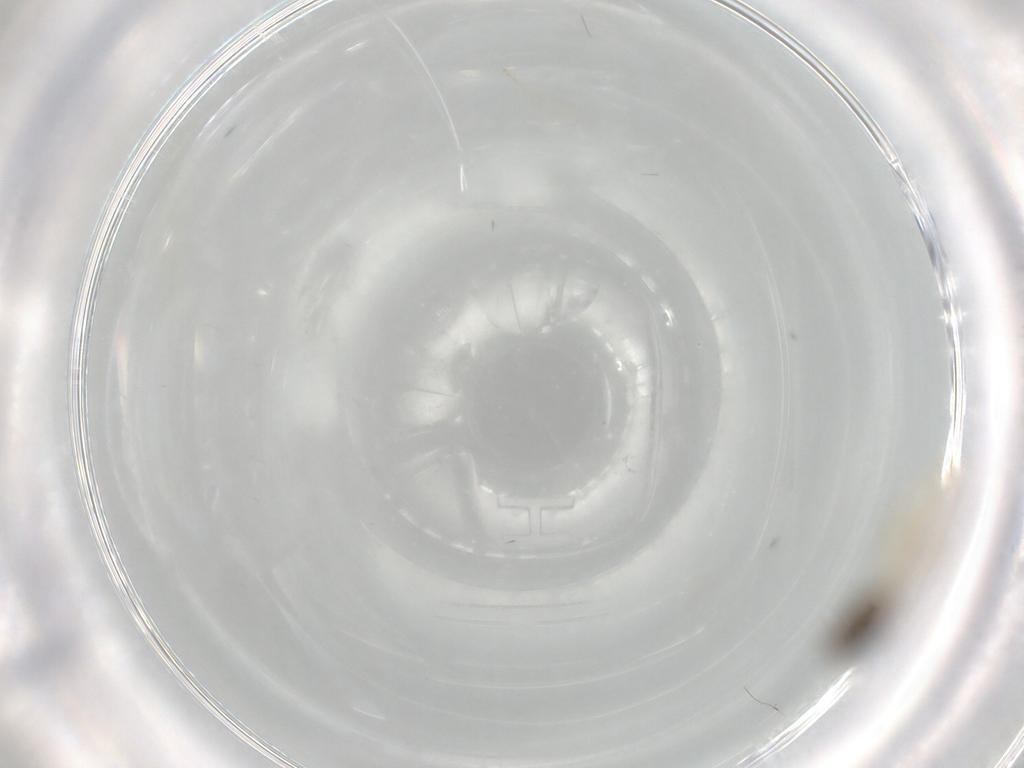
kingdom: Animalia
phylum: Arthropoda
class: Insecta
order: Diptera
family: Chironomidae
